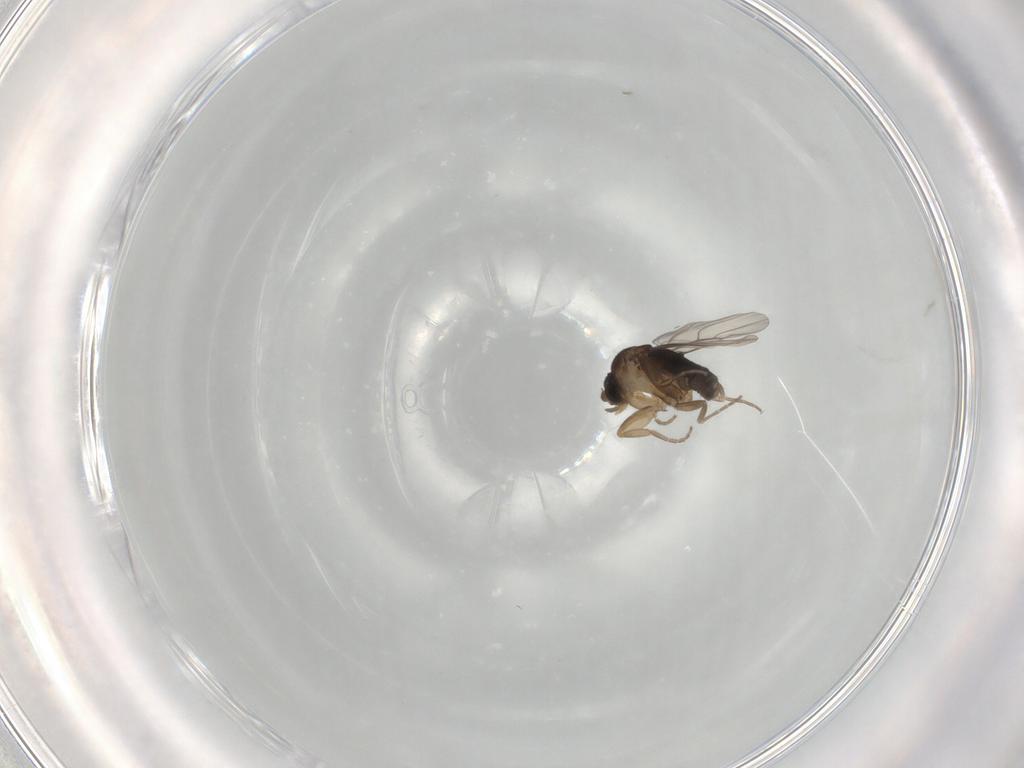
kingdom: Animalia
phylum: Arthropoda
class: Insecta
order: Diptera
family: Phoridae
